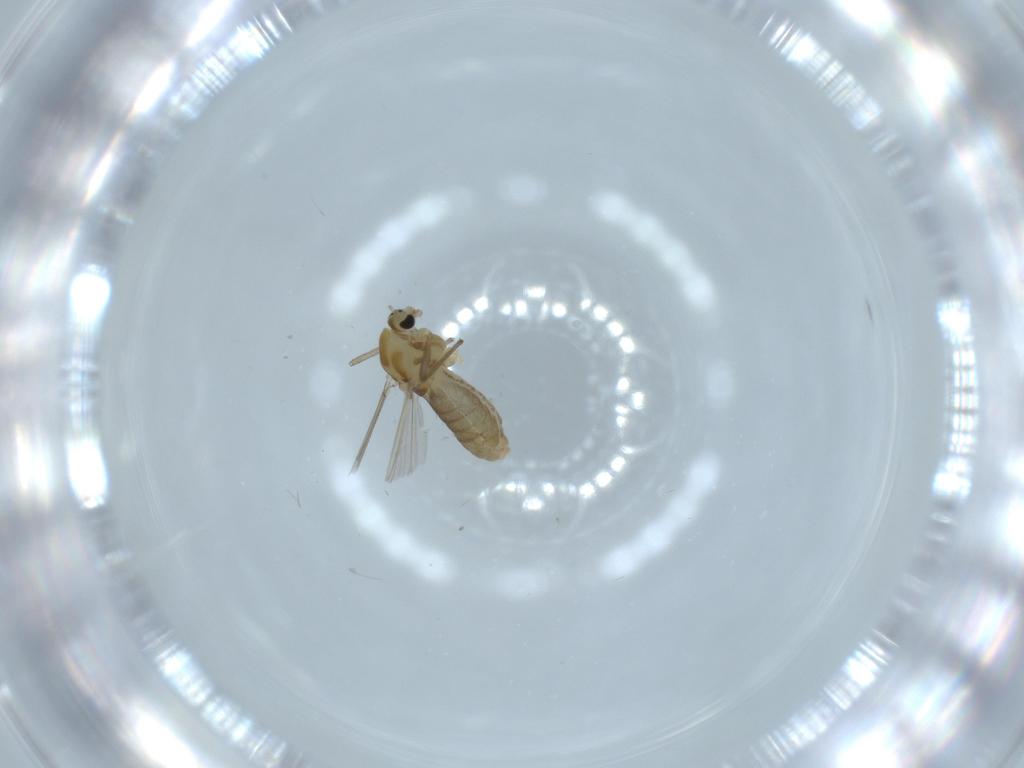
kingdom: Animalia
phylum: Arthropoda
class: Insecta
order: Diptera
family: Chironomidae
